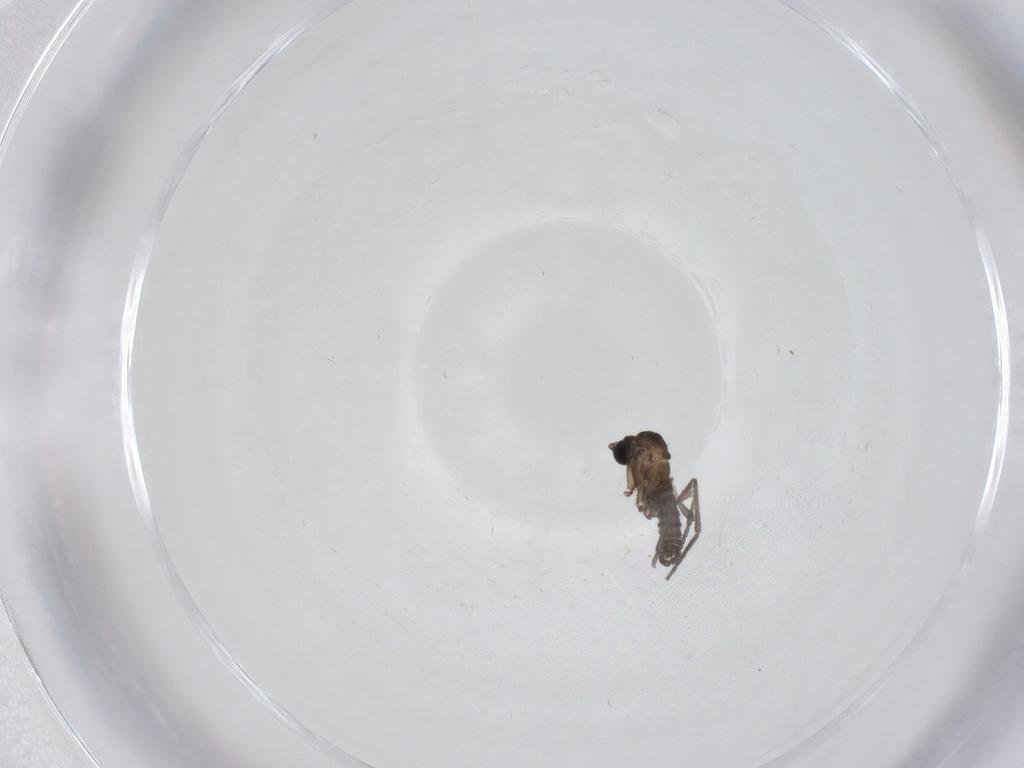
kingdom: Animalia
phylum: Arthropoda
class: Insecta
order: Diptera
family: Sciaridae
